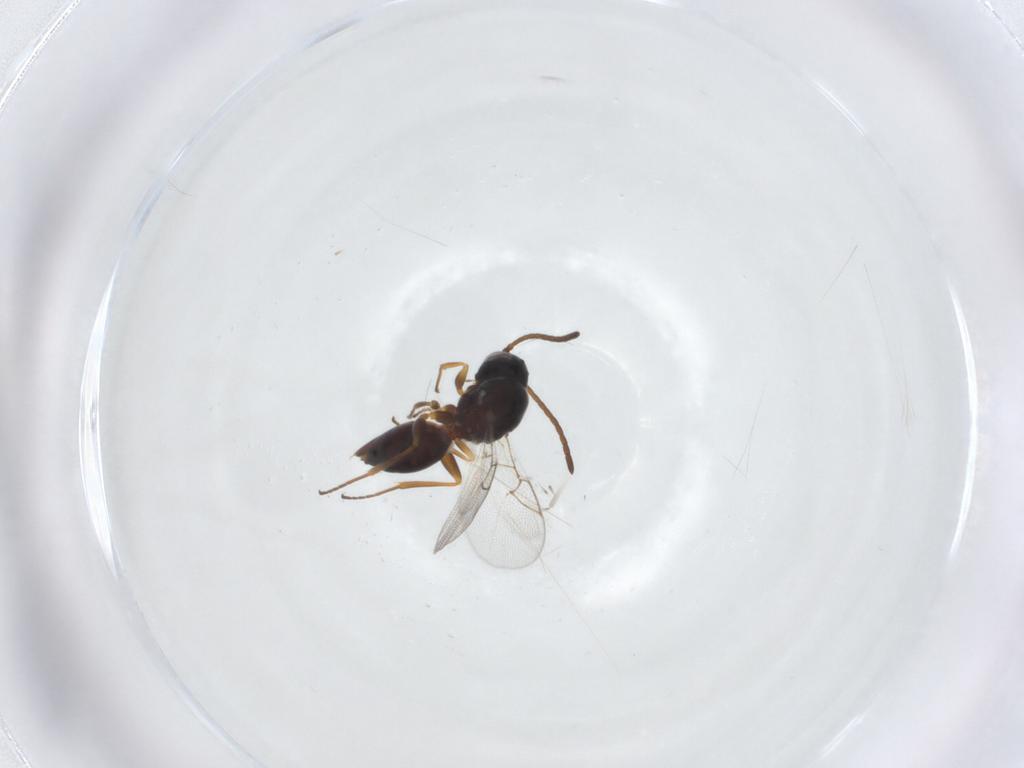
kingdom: Animalia
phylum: Arthropoda
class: Insecta
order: Hymenoptera
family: Figitidae
